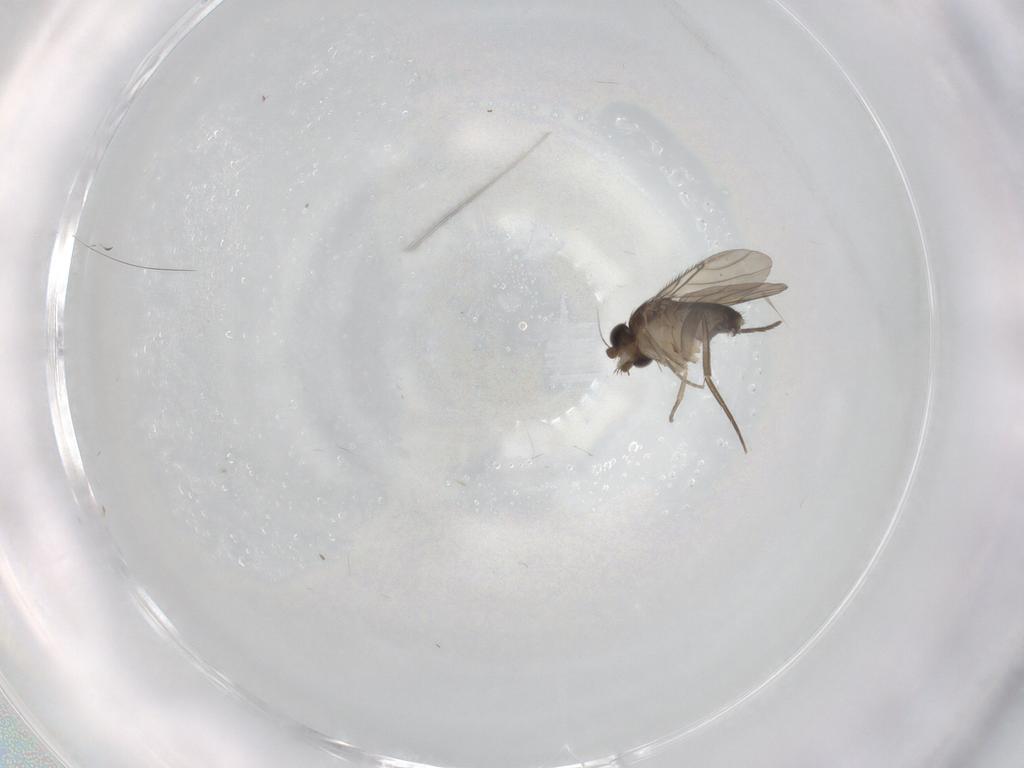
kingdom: Animalia
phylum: Arthropoda
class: Insecta
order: Diptera
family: Phoridae
